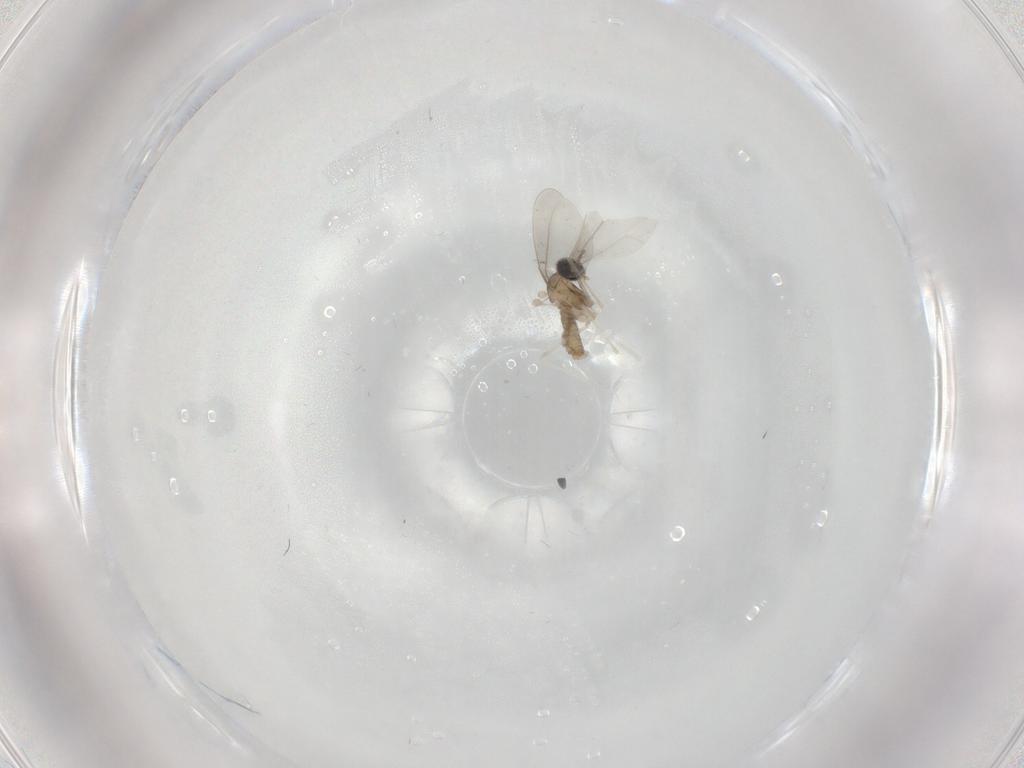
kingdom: Animalia
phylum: Arthropoda
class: Insecta
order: Diptera
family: Cecidomyiidae
